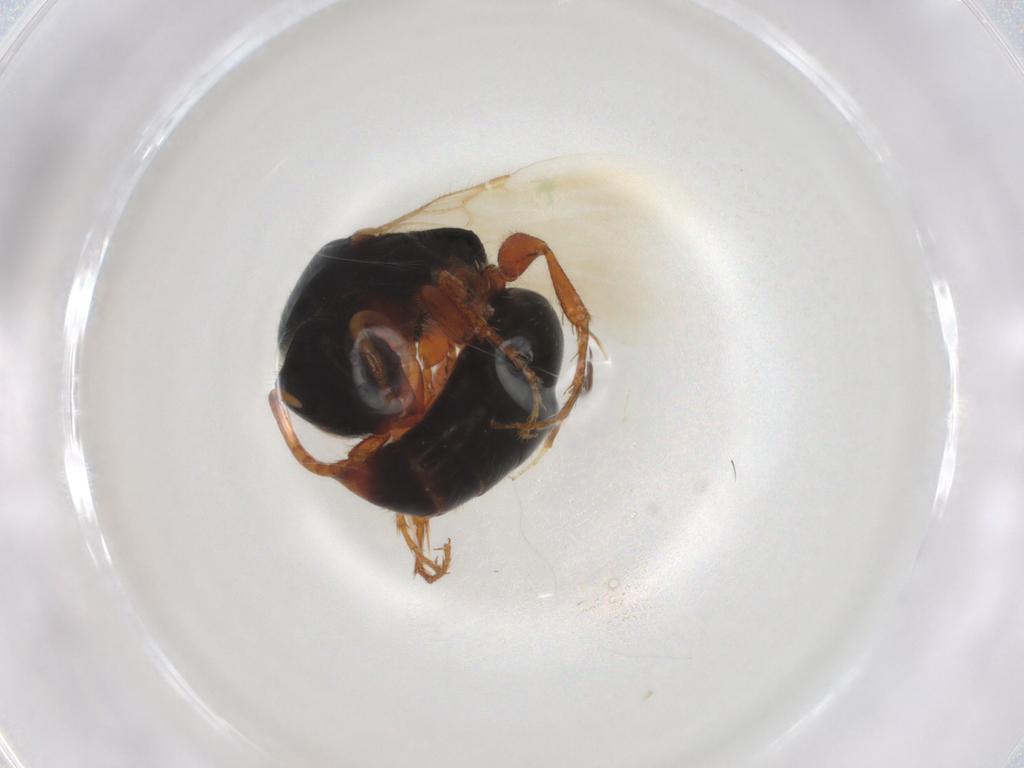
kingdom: Animalia
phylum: Arthropoda
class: Insecta
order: Hymenoptera
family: Bethylidae
